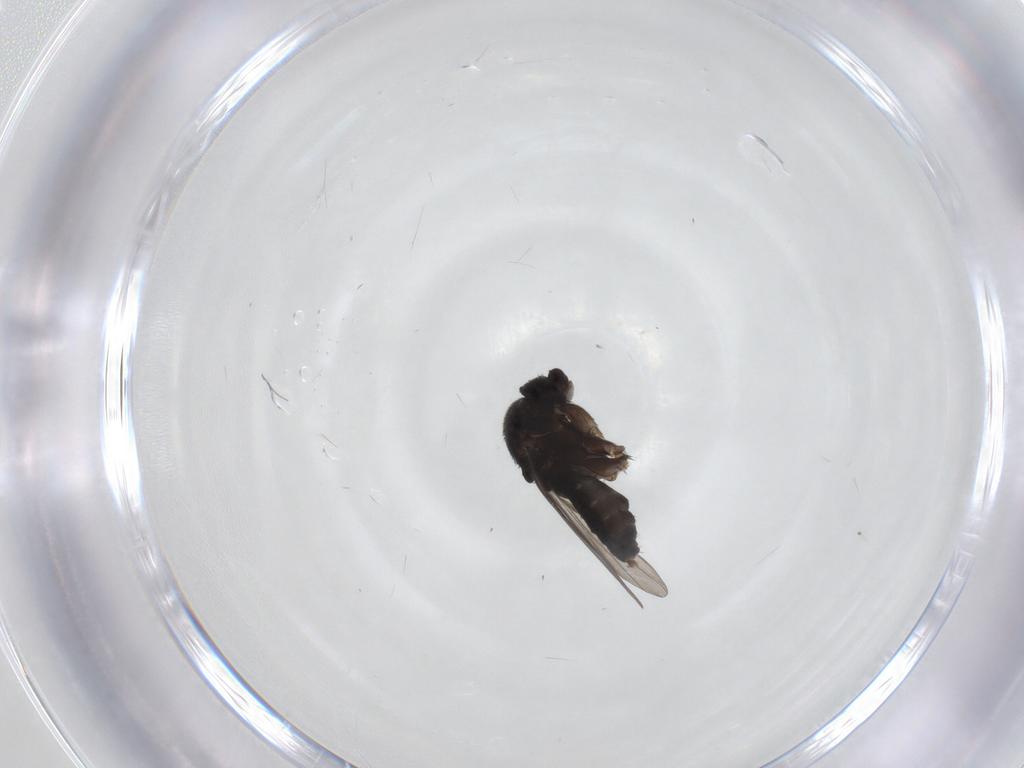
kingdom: Animalia
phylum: Arthropoda
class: Insecta
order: Diptera
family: Phoridae
